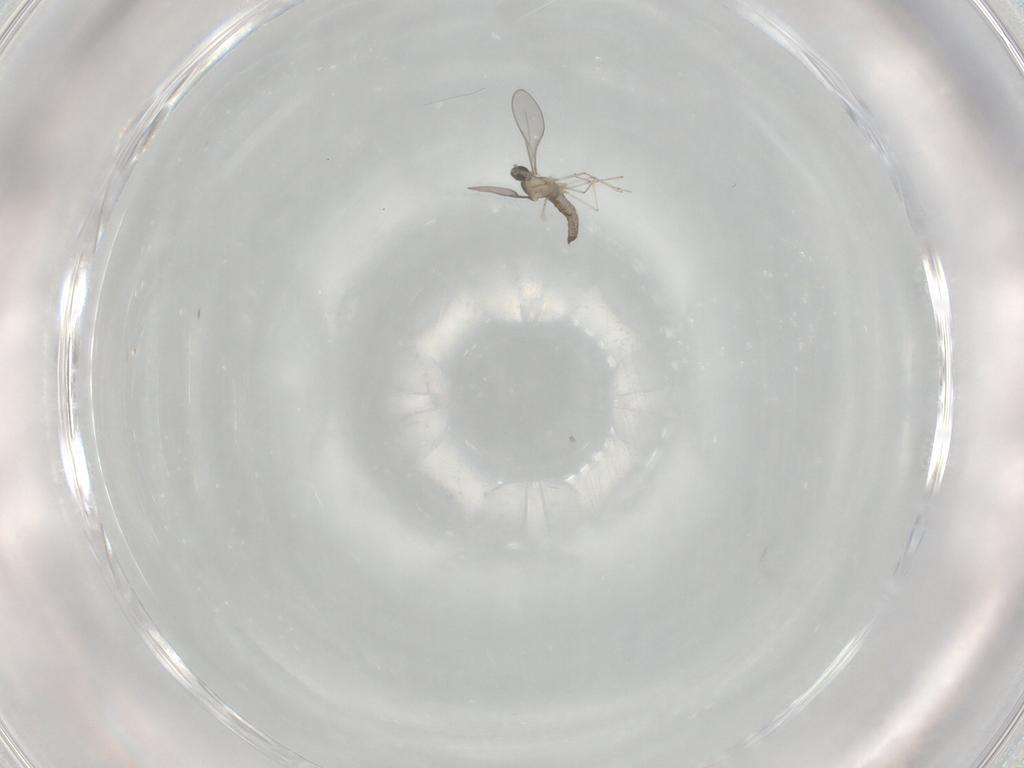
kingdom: Animalia
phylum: Arthropoda
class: Insecta
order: Diptera
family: Cecidomyiidae
